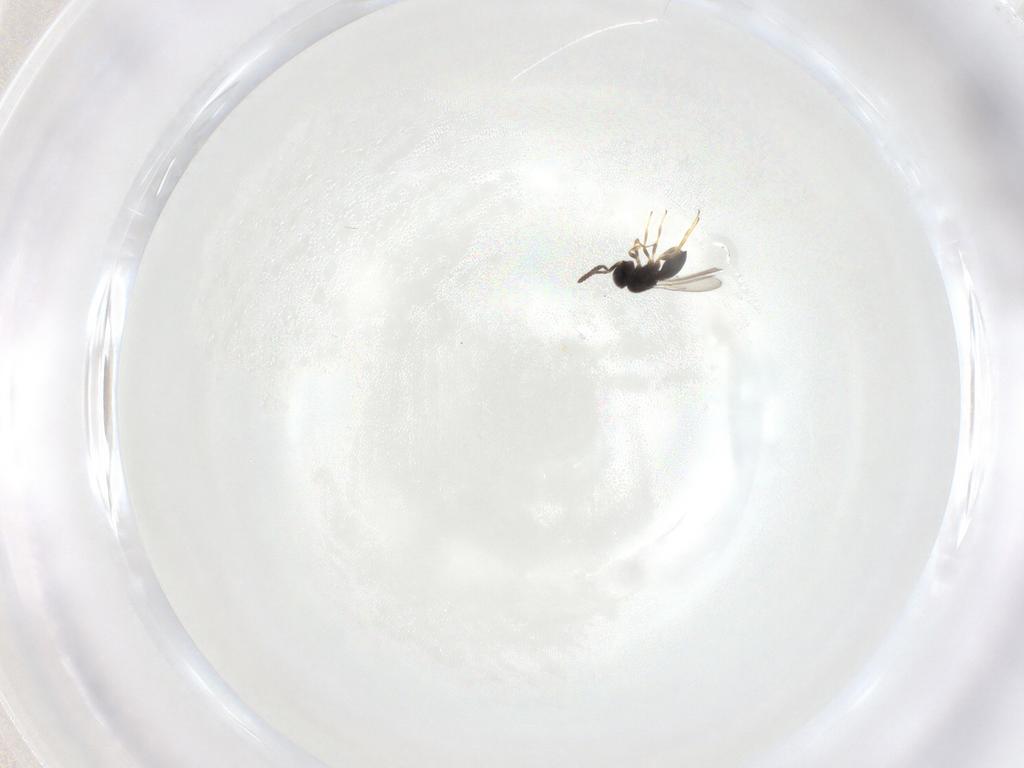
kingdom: Animalia
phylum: Arthropoda
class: Insecta
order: Hymenoptera
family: Scelionidae
